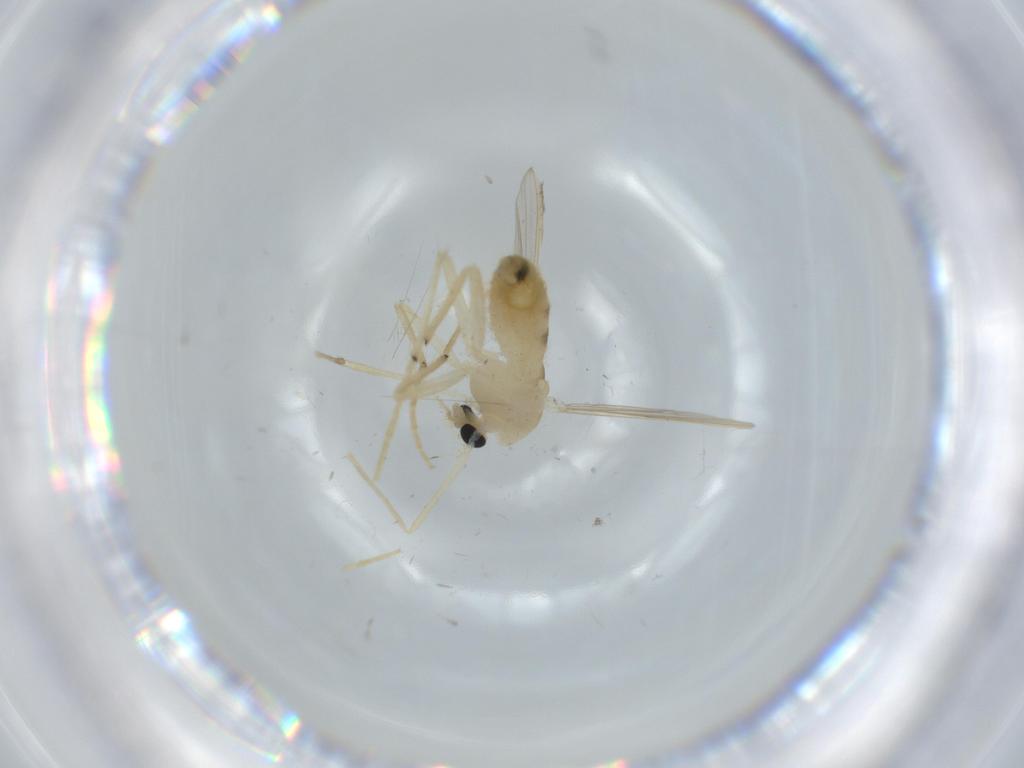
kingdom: Animalia
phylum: Arthropoda
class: Insecta
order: Diptera
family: Chironomidae
